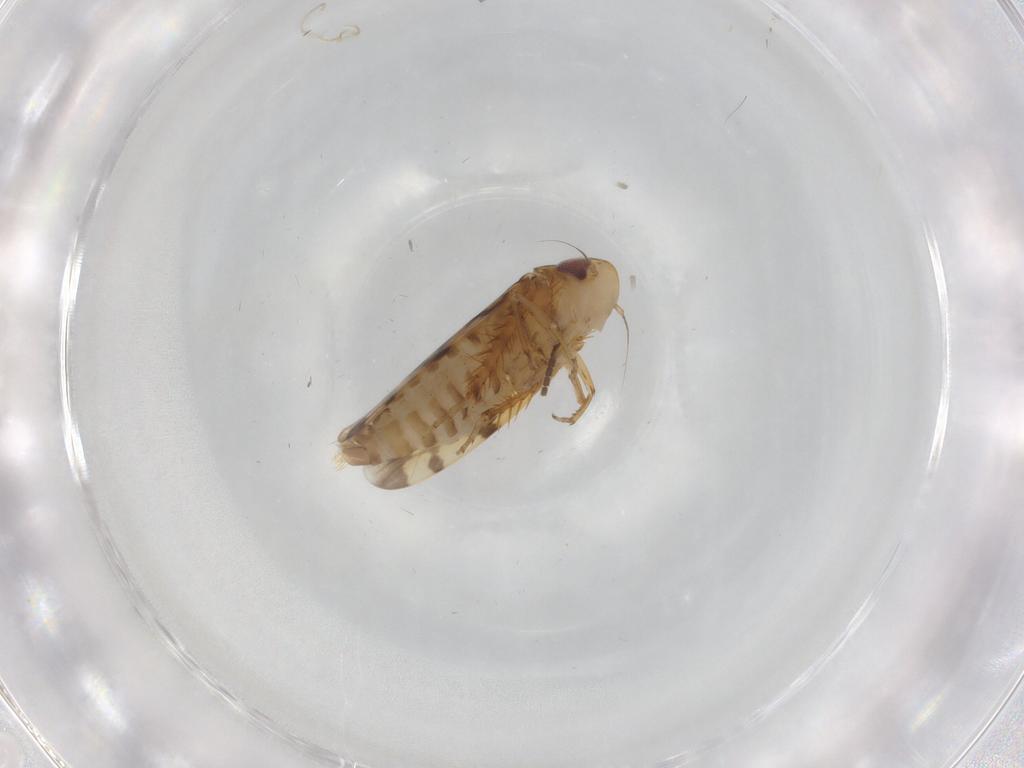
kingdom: Animalia
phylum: Arthropoda
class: Insecta
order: Hemiptera
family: Cicadellidae
